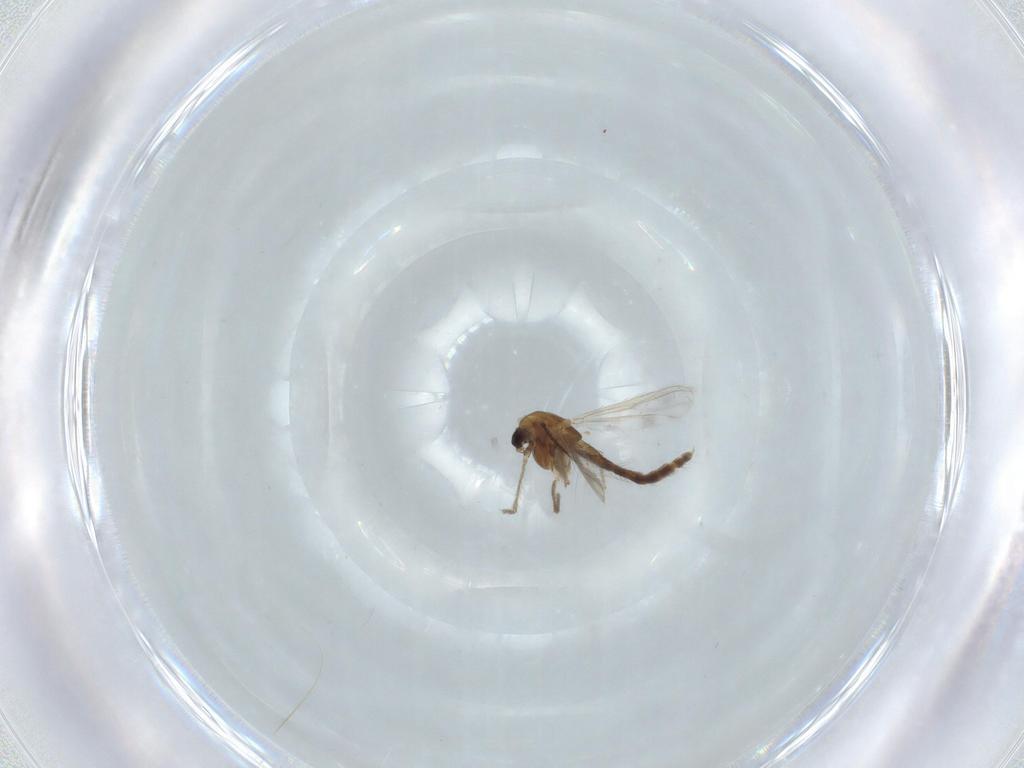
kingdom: Animalia
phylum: Arthropoda
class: Insecta
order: Diptera
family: Chironomidae
